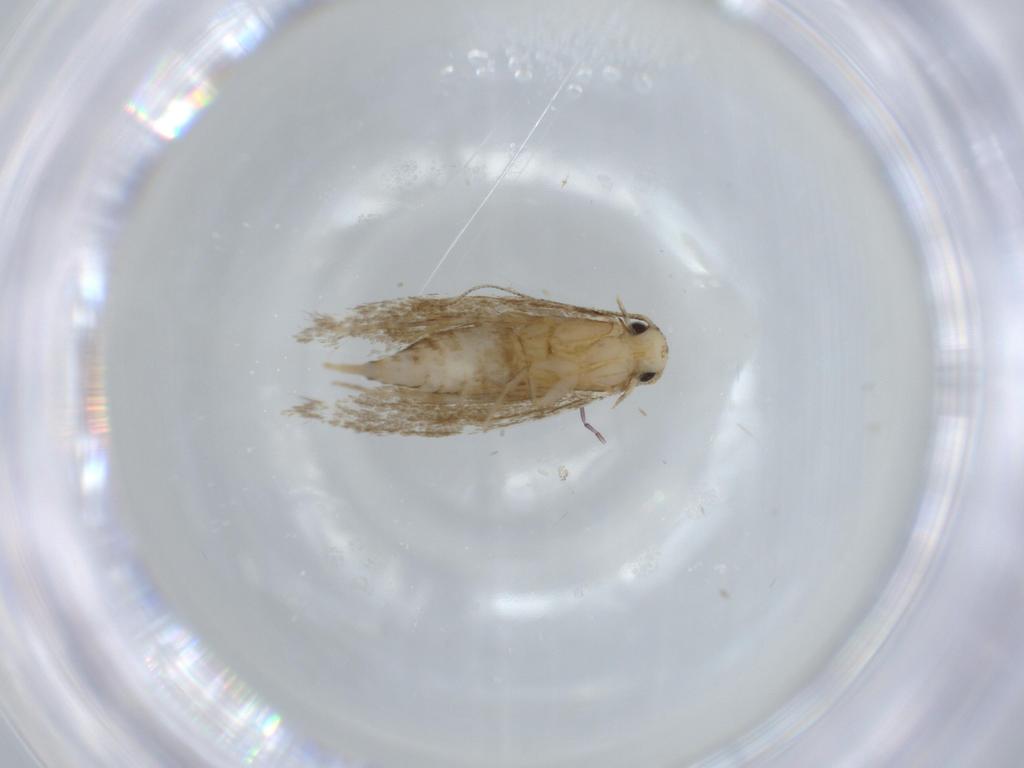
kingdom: Animalia
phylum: Arthropoda
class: Insecta
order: Lepidoptera
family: Tineidae
